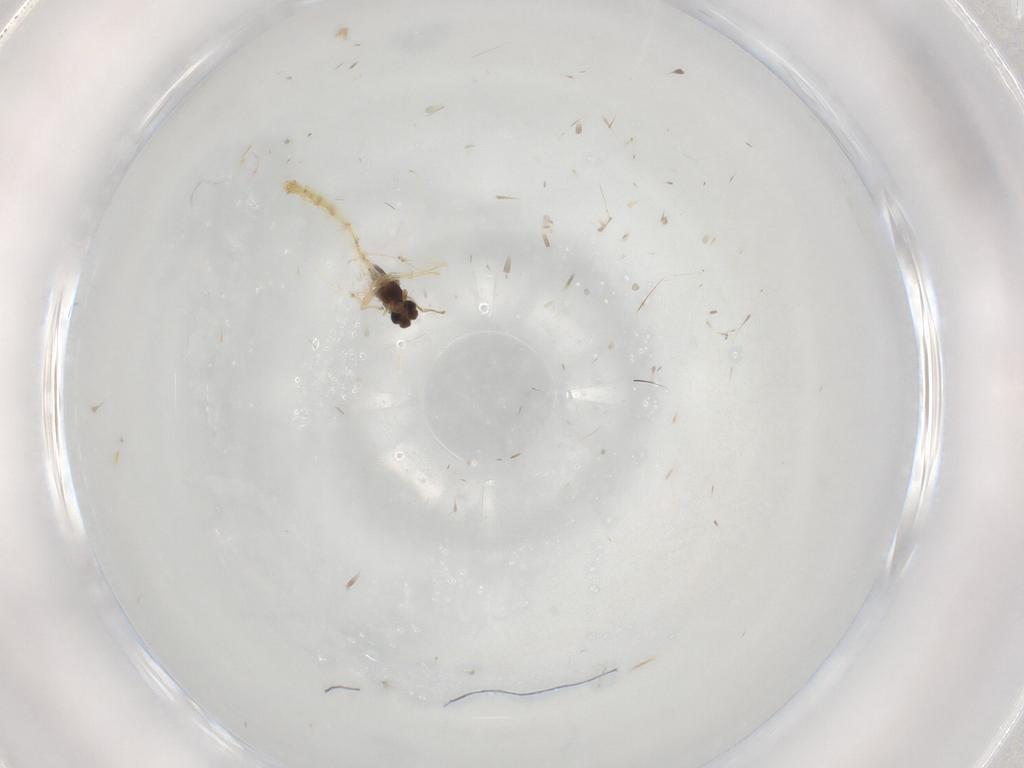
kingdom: Animalia
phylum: Arthropoda
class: Insecta
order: Diptera
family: Chironomidae
